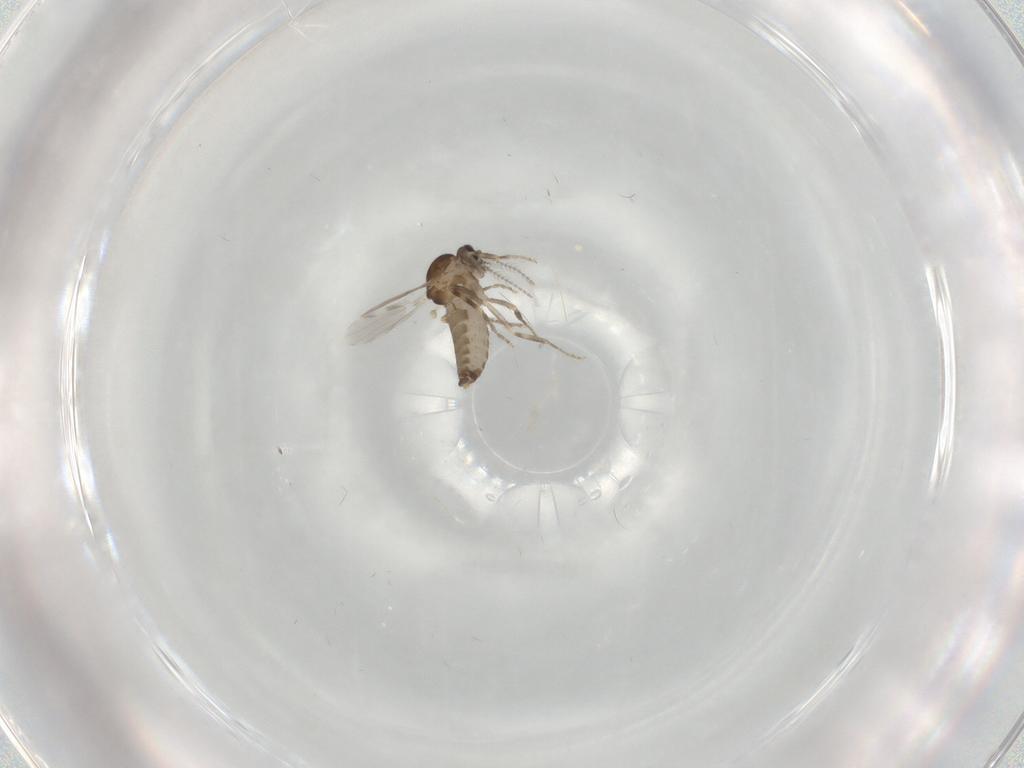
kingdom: Animalia
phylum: Arthropoda
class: Insecta
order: Diptera
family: Ceratopogonidae
